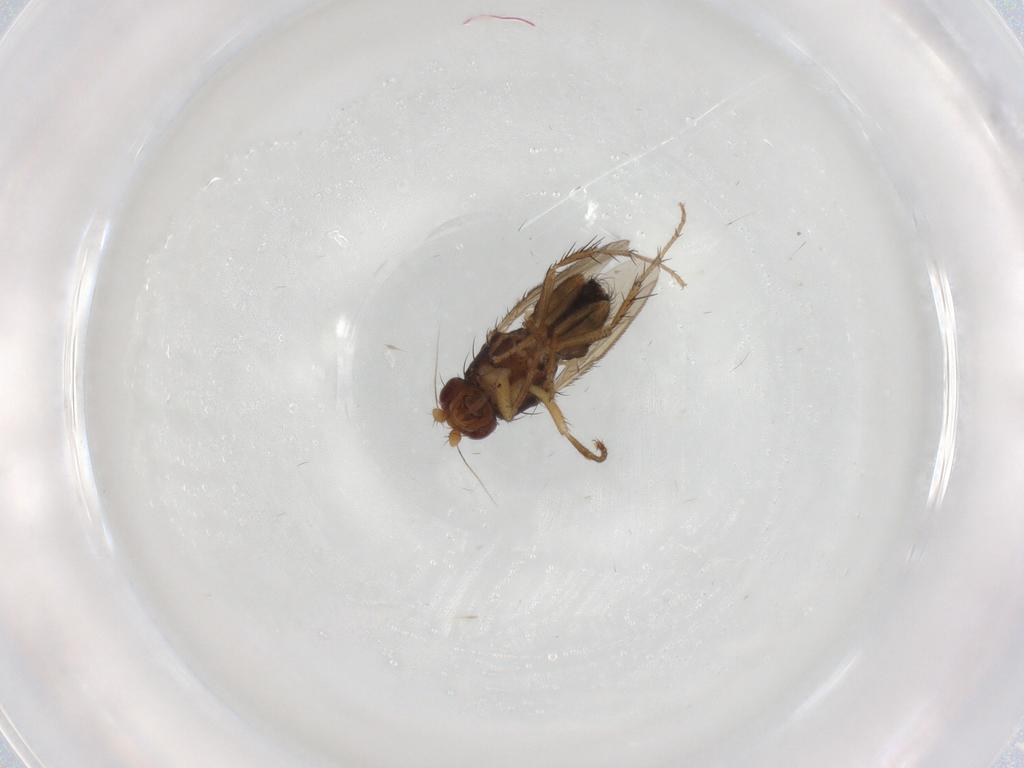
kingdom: Animalia
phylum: Arthropoda
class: Insecta
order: Diptera
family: Sphaeroceridae
